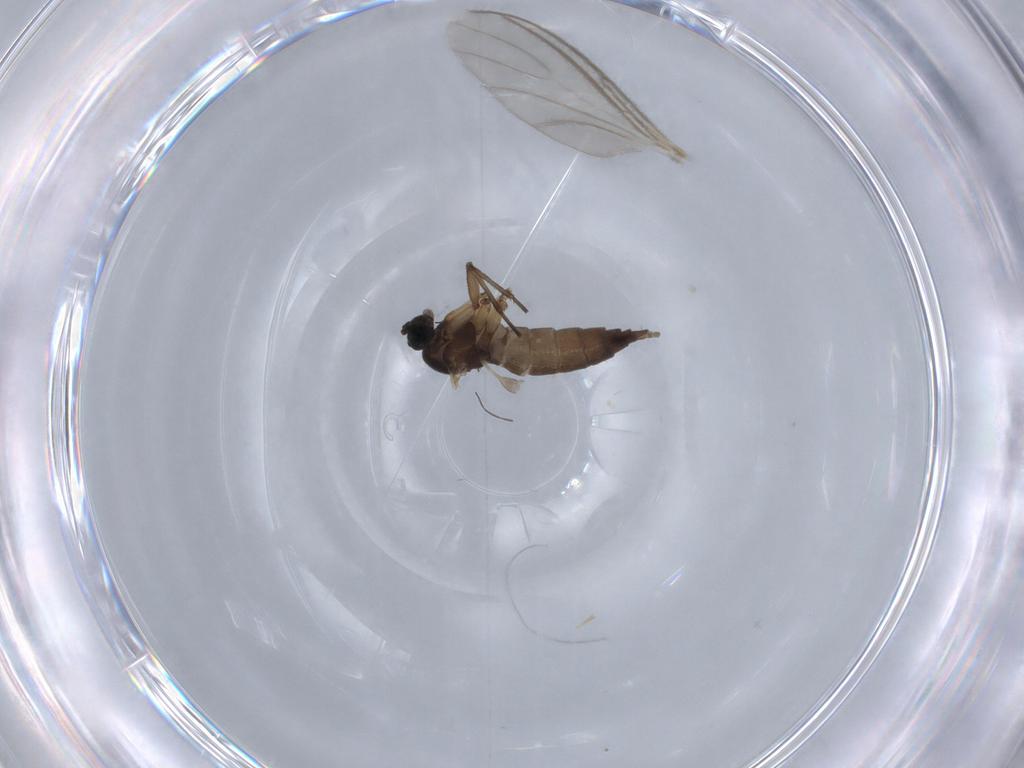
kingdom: Animalia
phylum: Arthropoda
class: Insecta
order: Diptera
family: Sciaridae
